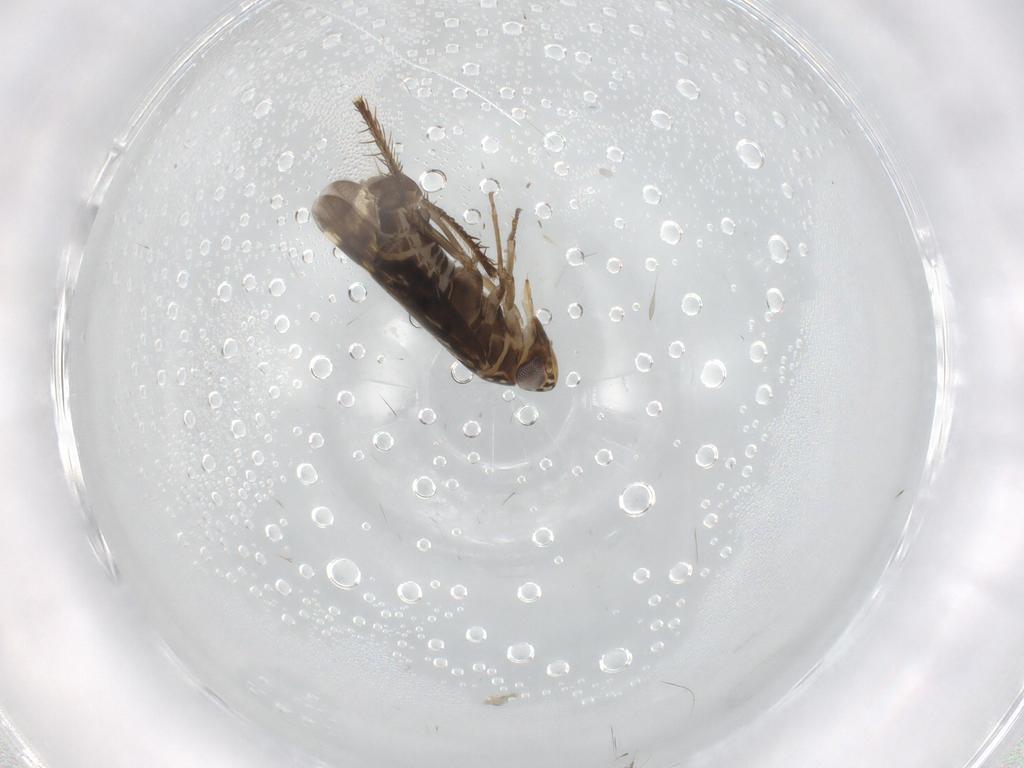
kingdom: Animalia
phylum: Arthropoda
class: Insecta
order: Hemiptera
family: Cicadellidae
